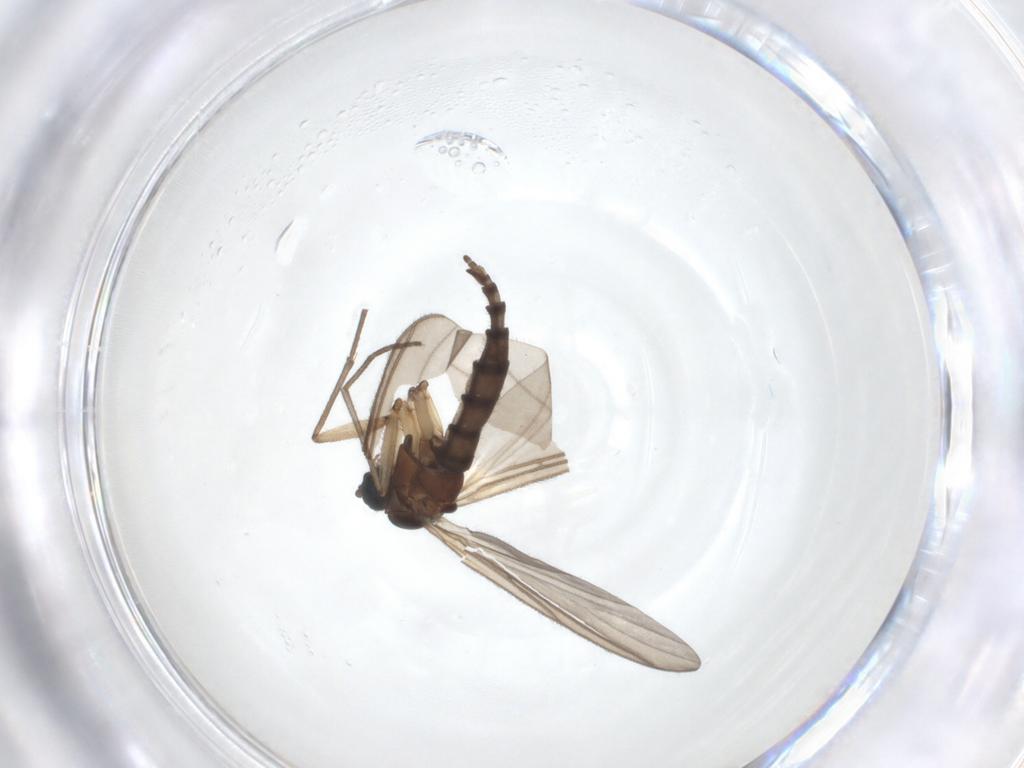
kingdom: Animalia
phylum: Arthropoda
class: Insecta
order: Diptera
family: Sciaridae
